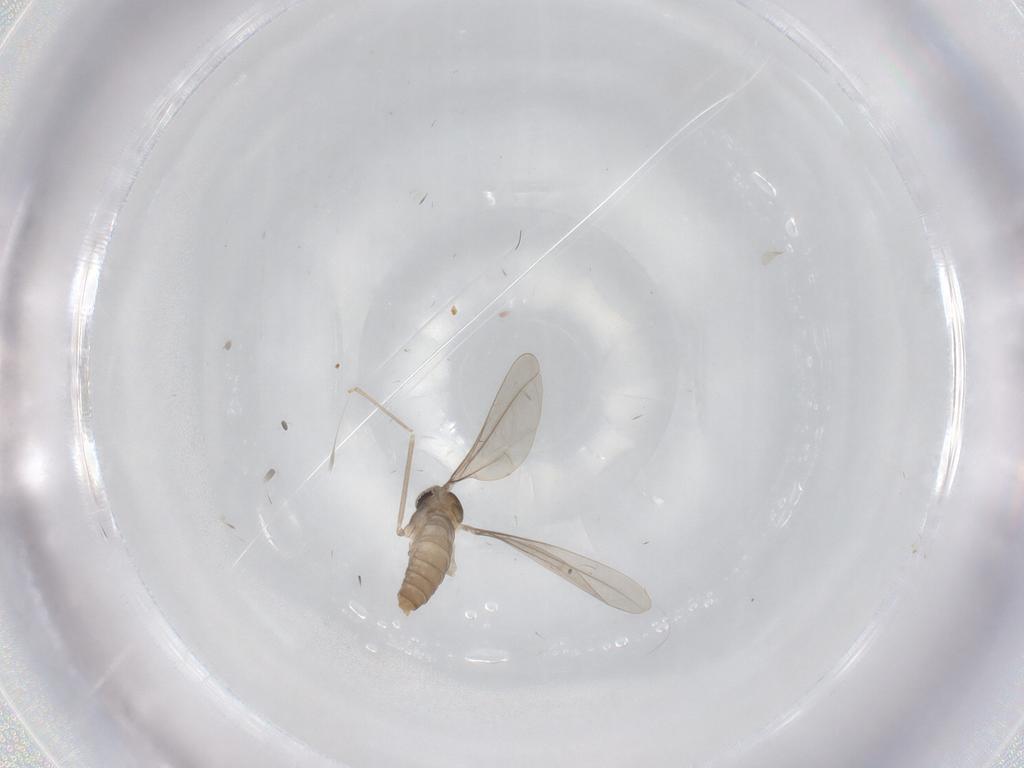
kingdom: Animalia
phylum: Arthropoda
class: Insecta
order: Diptera
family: Cecidomyiidae
